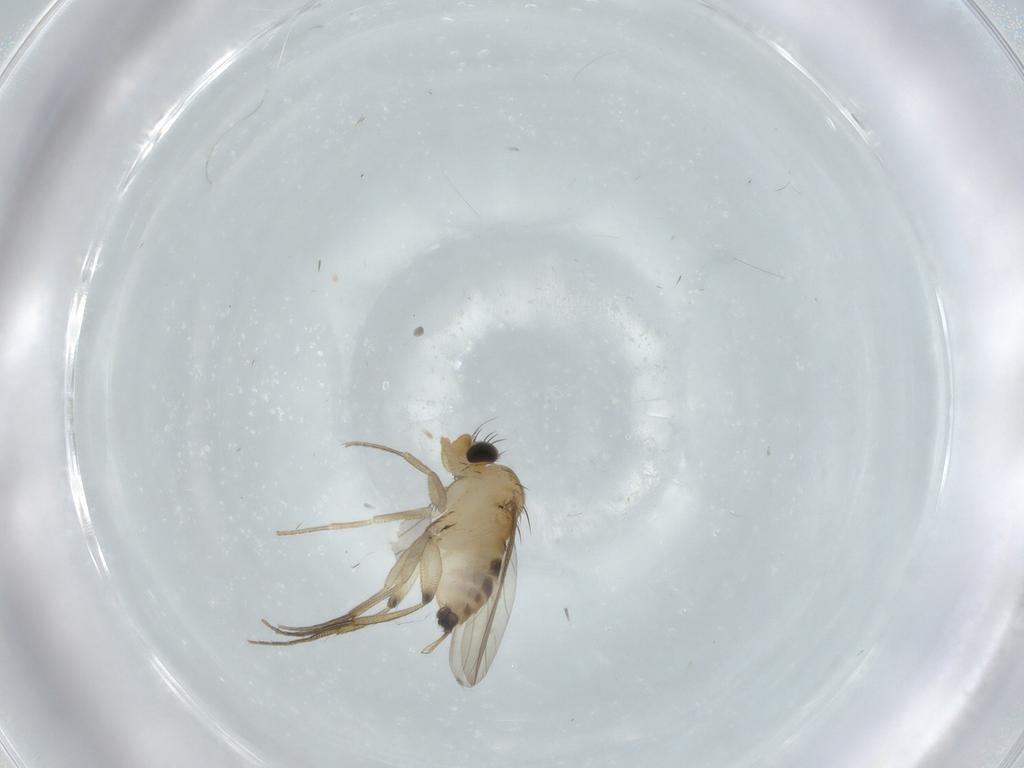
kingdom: Animalia
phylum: Arthropoda
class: Insecta
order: Diptera
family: Phoridae
